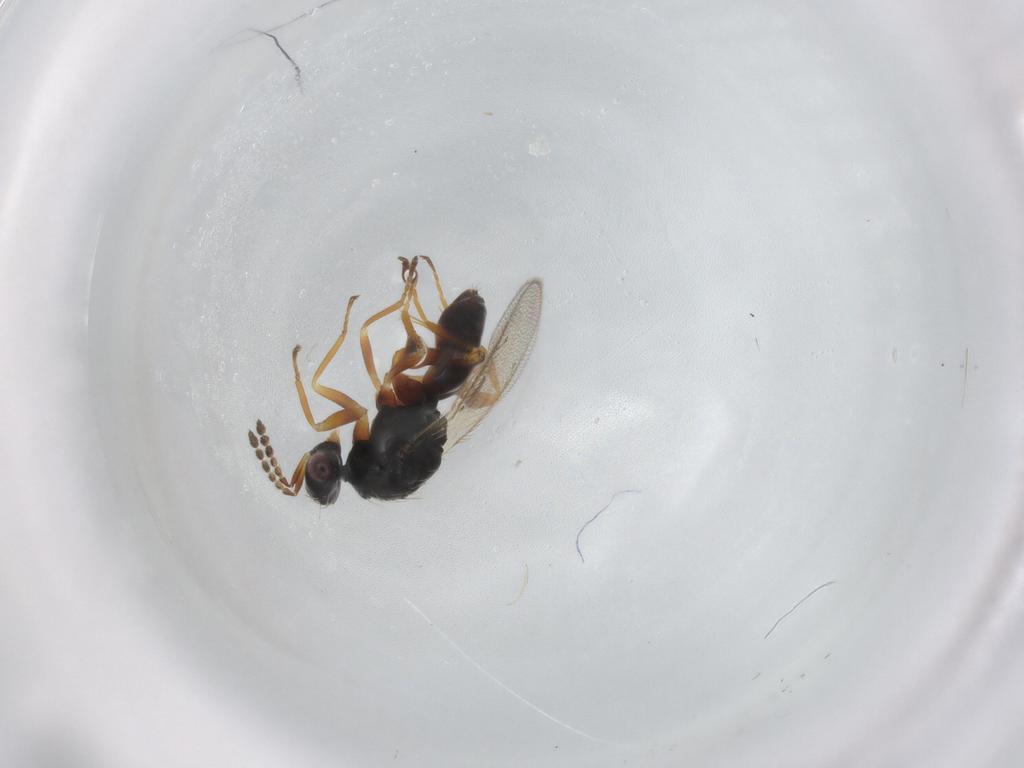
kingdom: Animalia
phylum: Arthropoda
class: Insecta
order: Hymenoptera
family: Eulophidae
